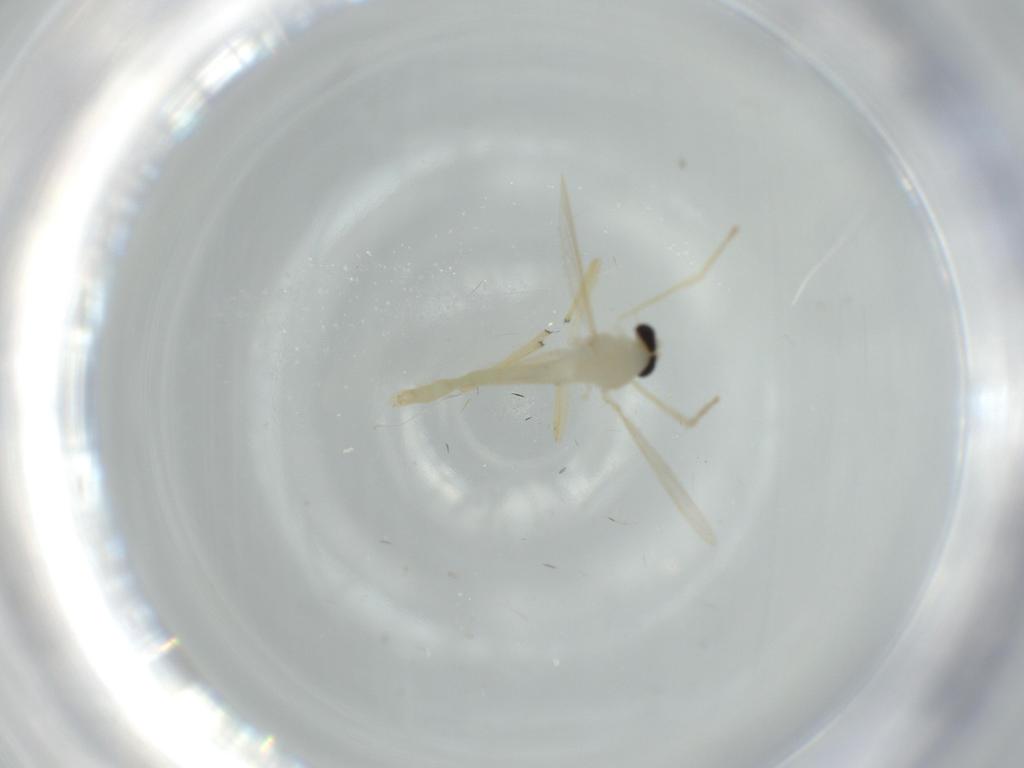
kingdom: Animalia
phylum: Arthropoda
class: Insecta
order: Diptera
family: Chironomidae
